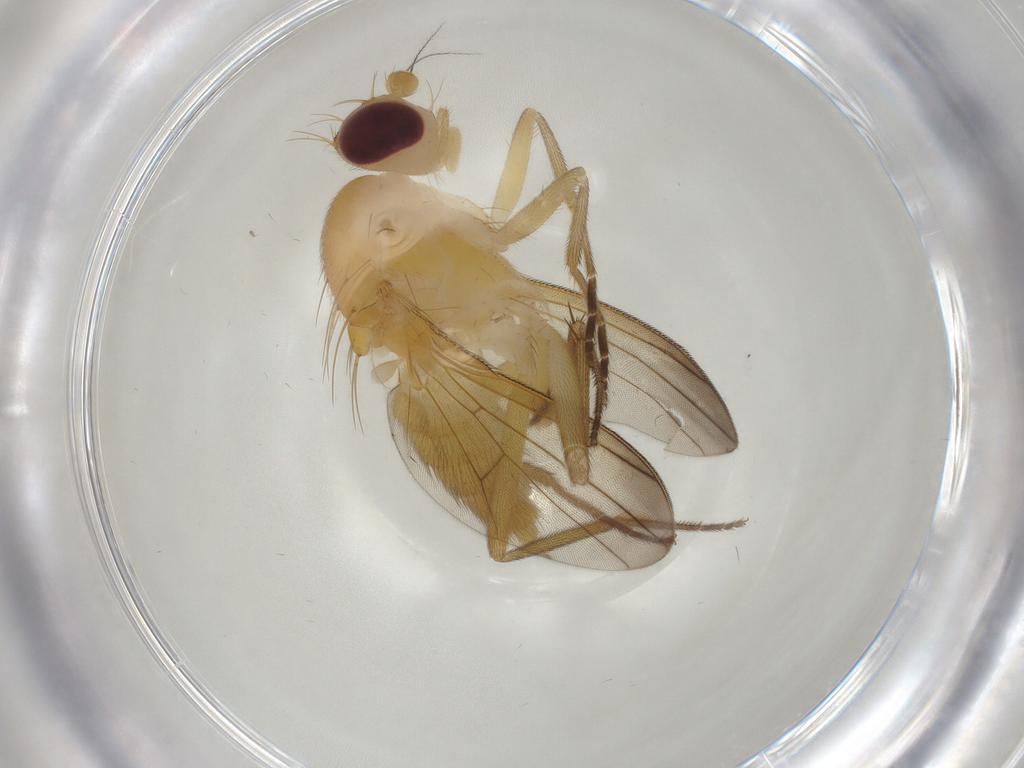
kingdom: Animalia
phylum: Arthropoda
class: Insecta
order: Diptera
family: Clusiidae
